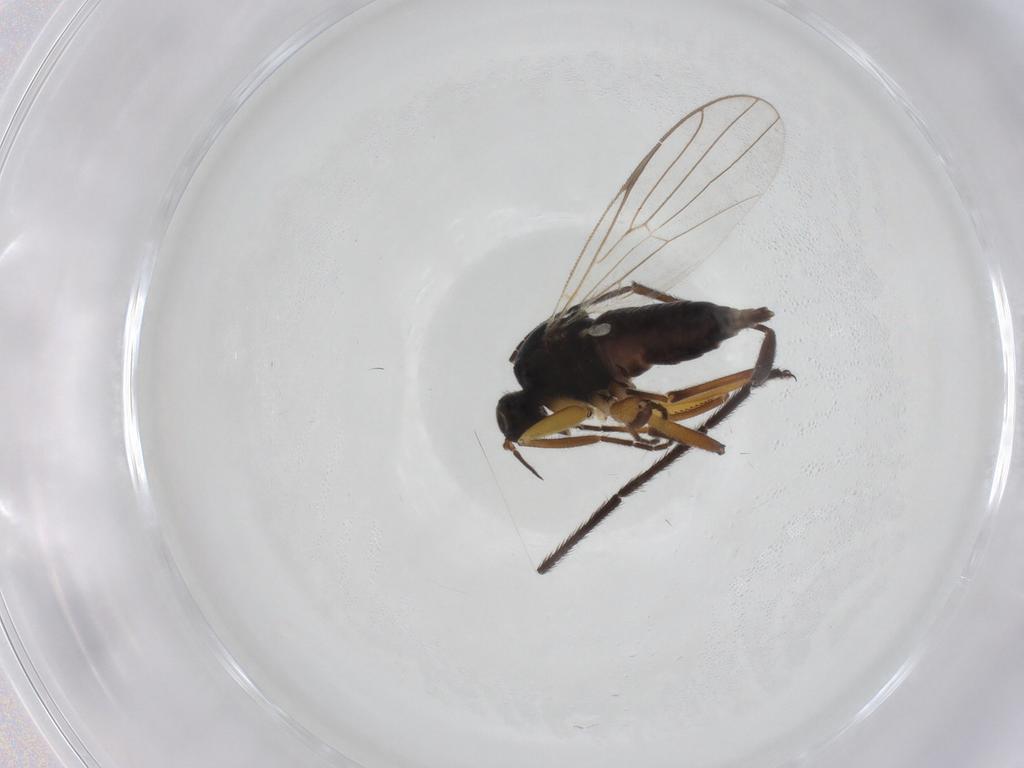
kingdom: Animalia
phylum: Arthropoda
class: Insecta
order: Diptera
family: Tipulidae
